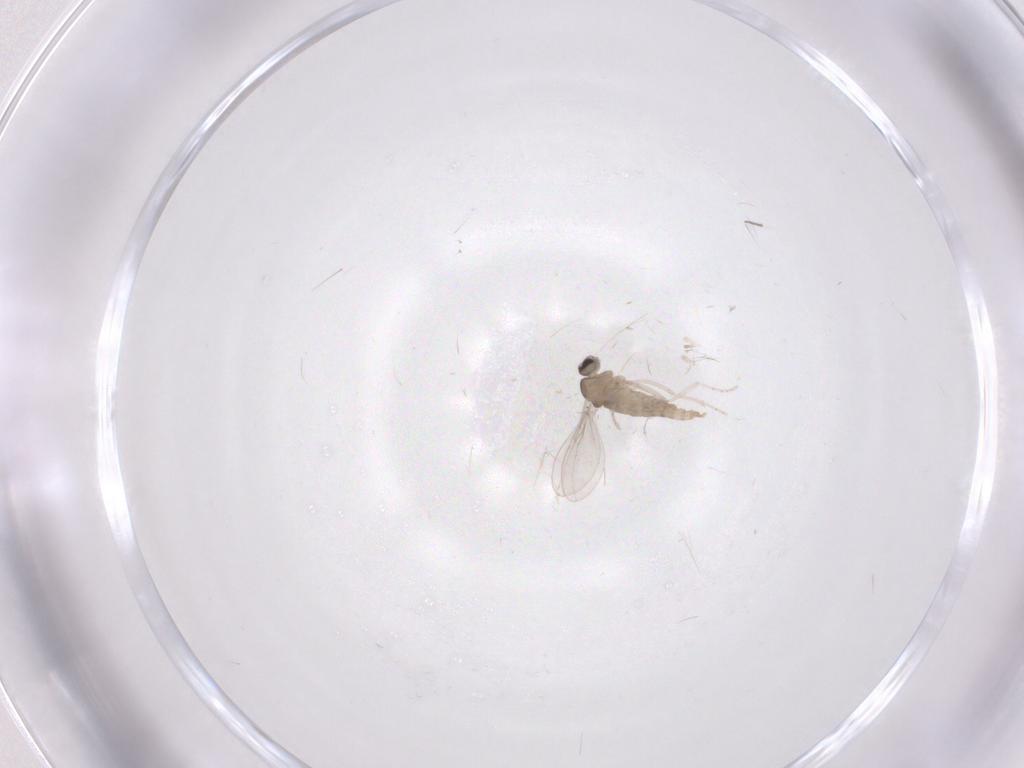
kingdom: Animalia
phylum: Arthropoda
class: Insecta
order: Diptera
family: Cecidomyiidae
